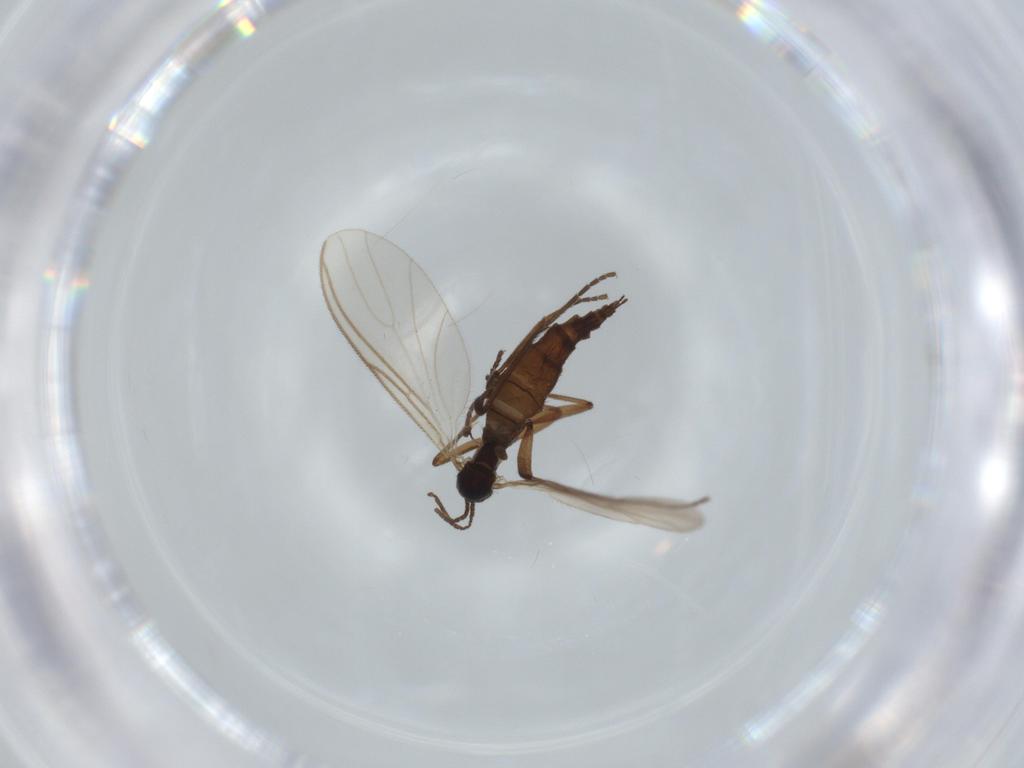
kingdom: Animalia
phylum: Arthropoda
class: Insecta
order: Diptera
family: Sciaridae
